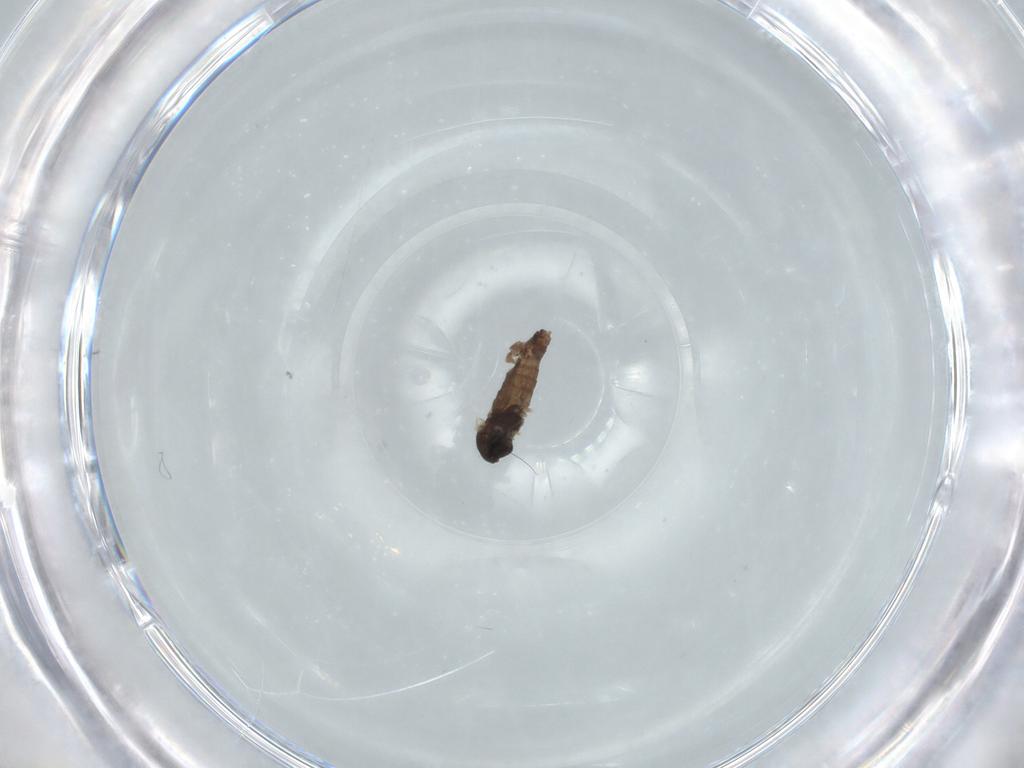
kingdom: Animalia
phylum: Arthropoda
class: Insecta
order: Diptera
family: Chironomidae
